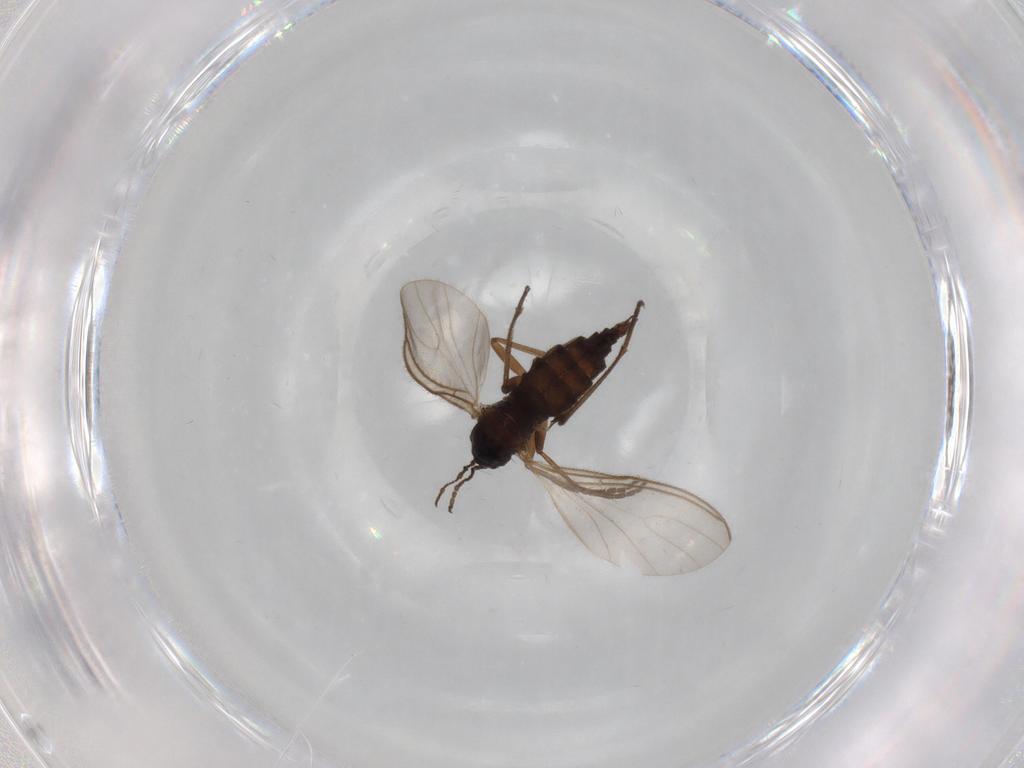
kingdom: Animalia
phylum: Arthropoda
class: Insecta
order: Diptera
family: Sciaridae
